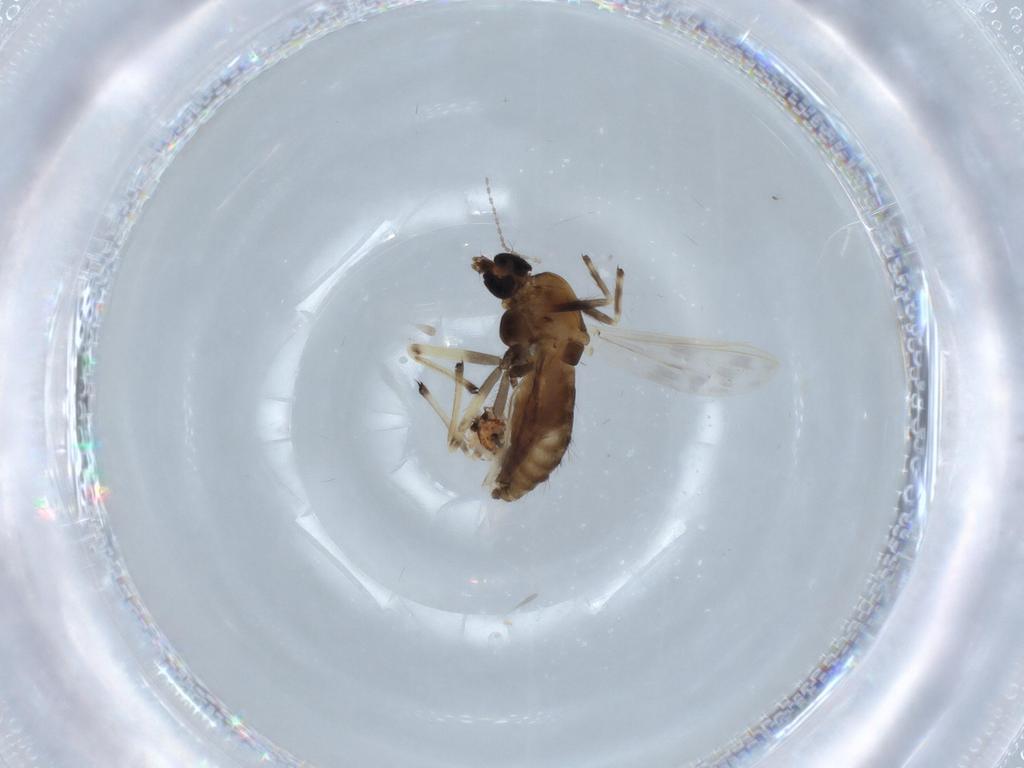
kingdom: Animalia
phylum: Arthropoda
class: Insecta
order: Diptera
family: Chironomidae
